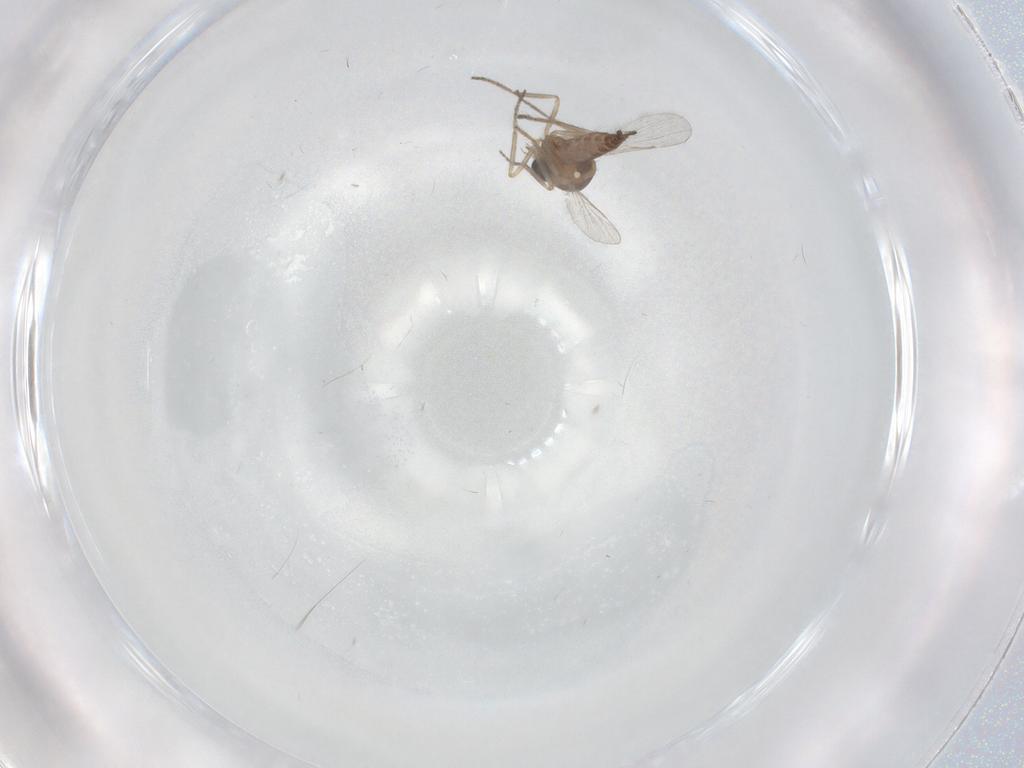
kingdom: Animalia
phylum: Arthropoda
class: Insecta
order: Diptera
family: Ceratopogonidae
